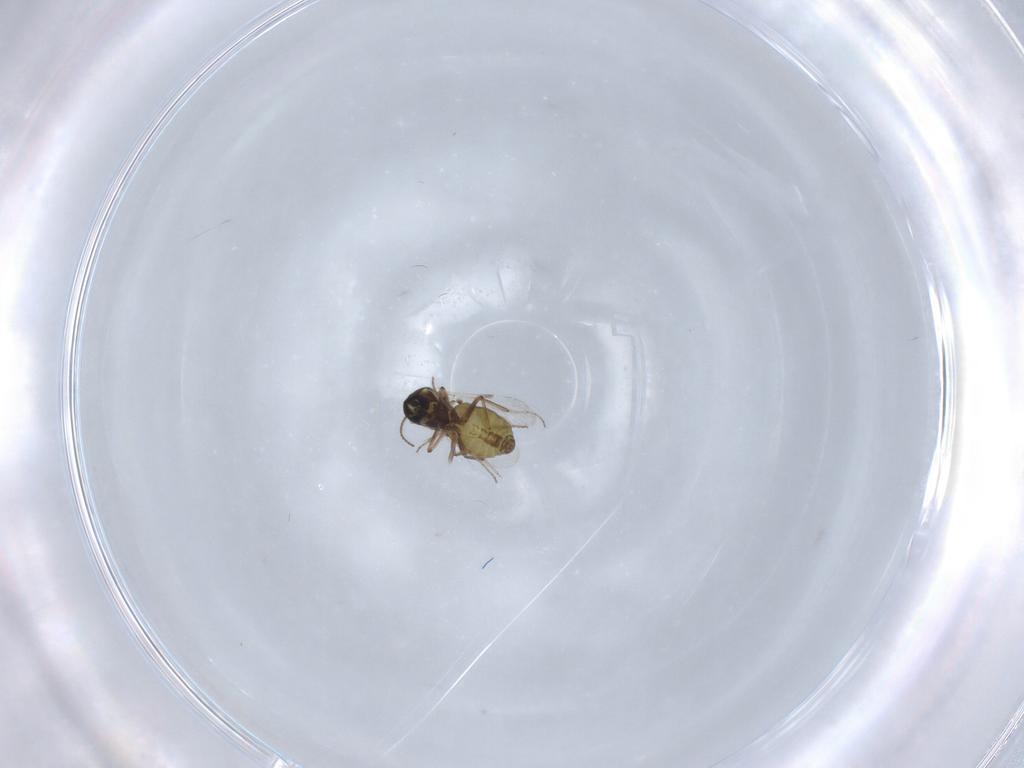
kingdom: Animalia
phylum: Arthropoda
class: Insecta
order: Diptera
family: Ceratopogonidae
